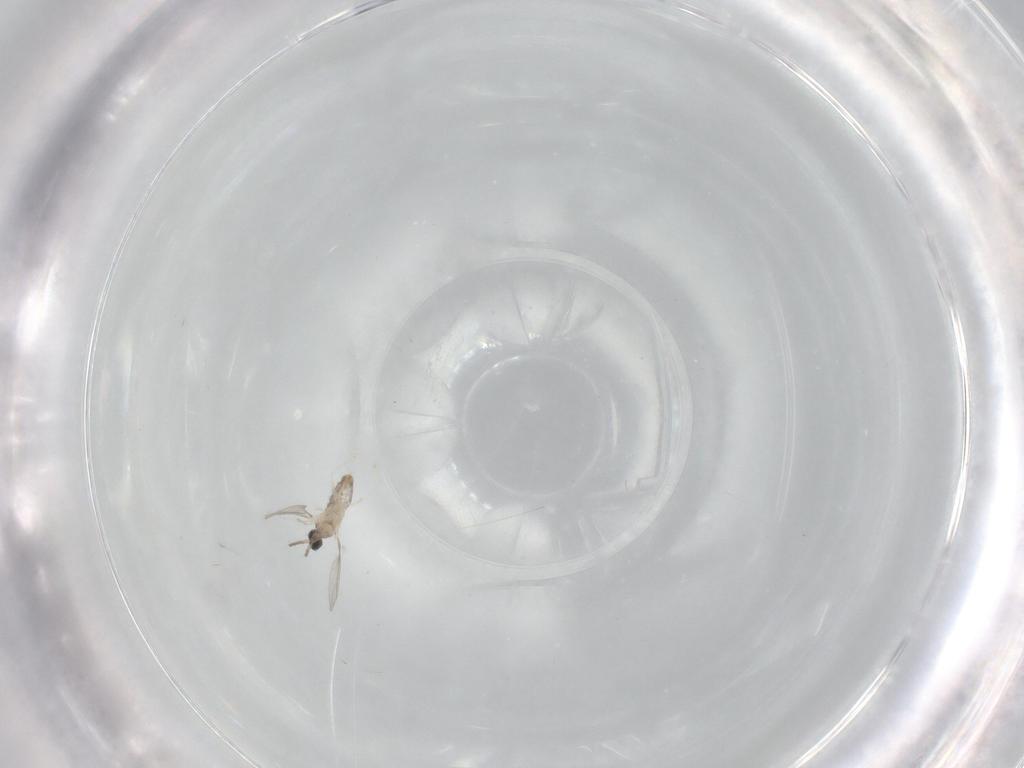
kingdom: Animalia
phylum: Arthropoda
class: Insecta
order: Diptera
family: Cecidomyiidae
